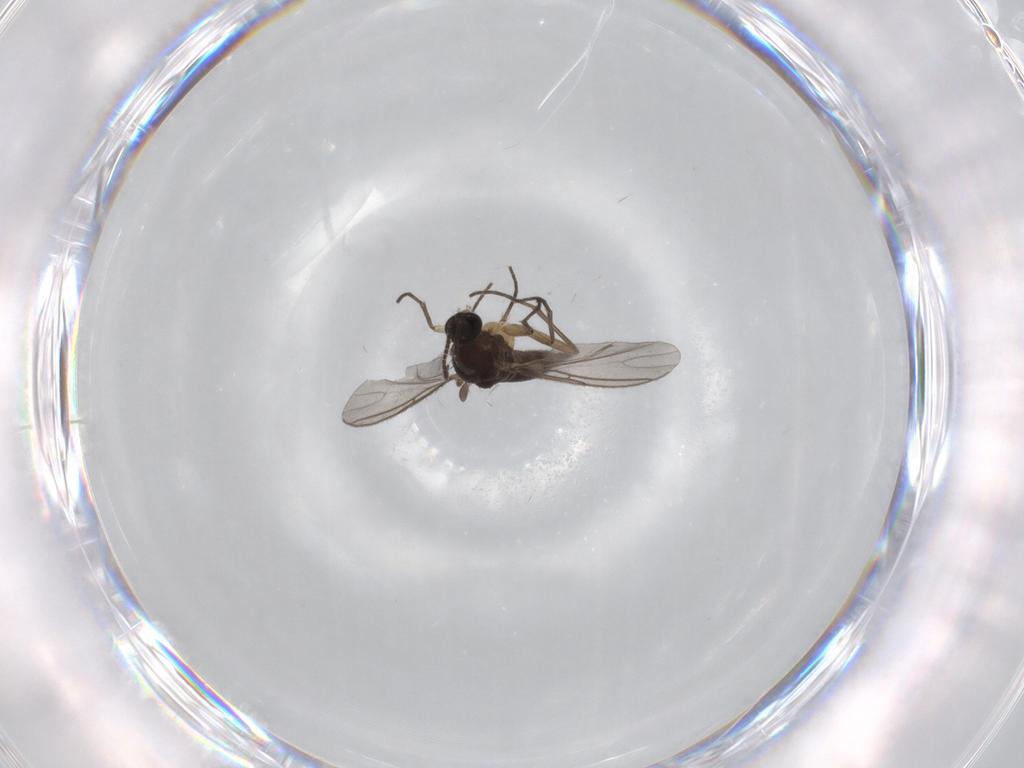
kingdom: Animalia
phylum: Arthropoda
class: Insecta
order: Diptera
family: Sciaridae
